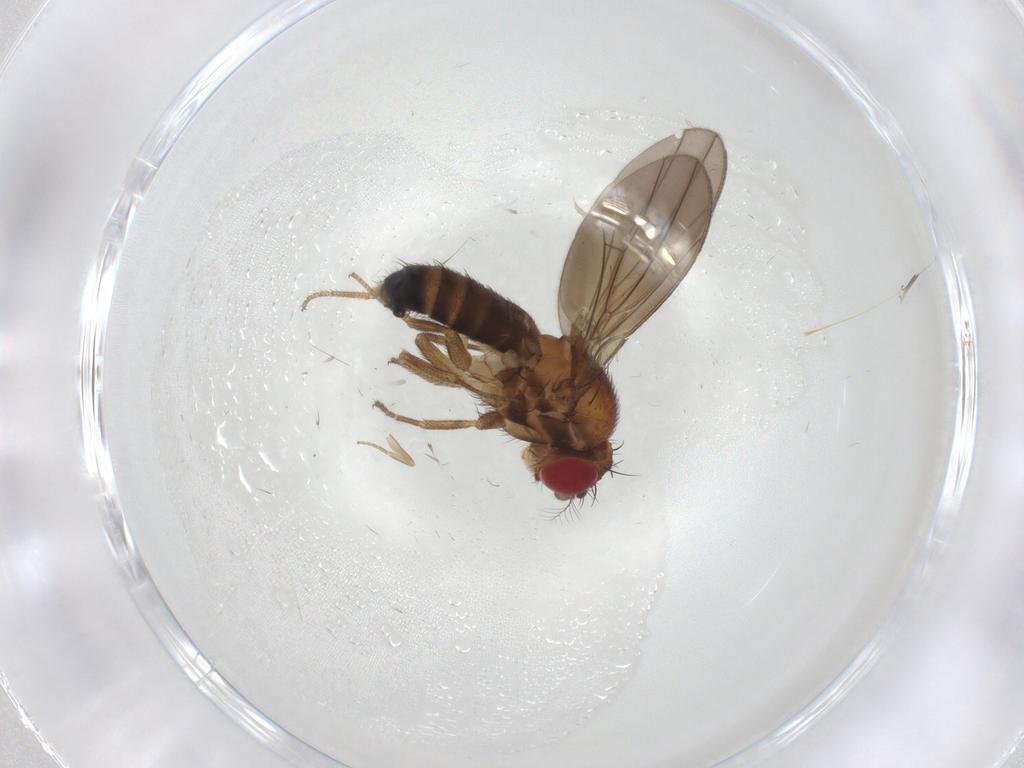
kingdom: Animalia
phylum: Arthropoda
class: Insecta
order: Diptera
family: Drosophilidae
